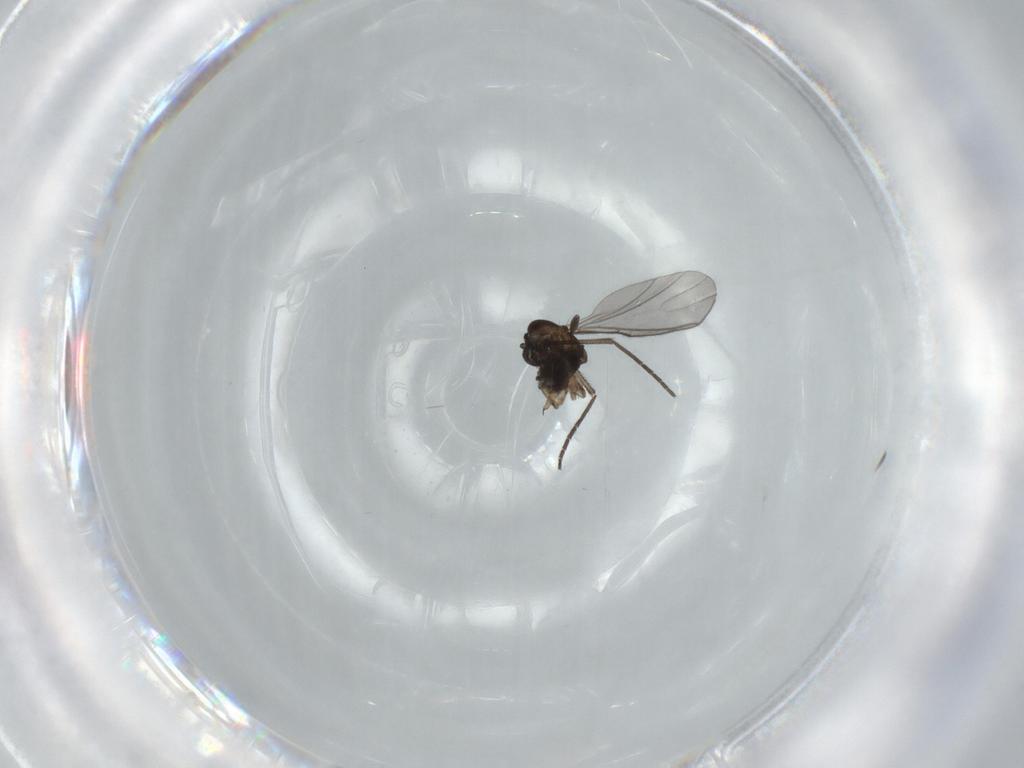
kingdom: Animalia
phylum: Arthropoda
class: Insecta
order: Diptera
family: Sciaridae
